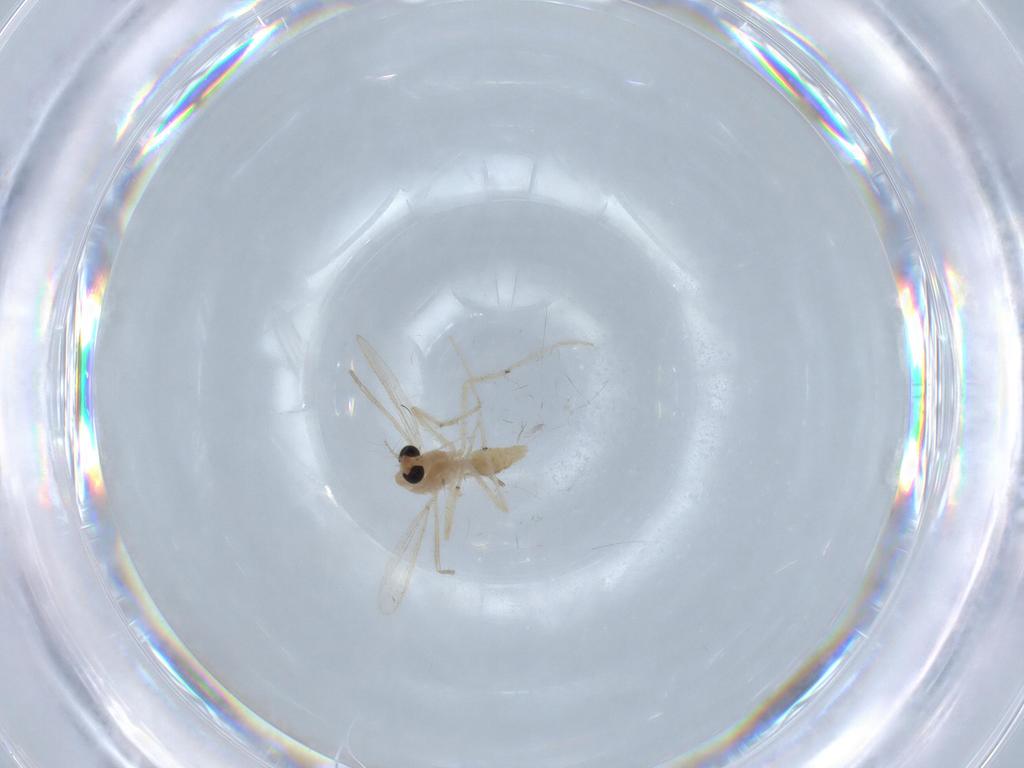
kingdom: Animalia
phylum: Arthropoda
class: Insecta
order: Diptera
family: Chironomidae
